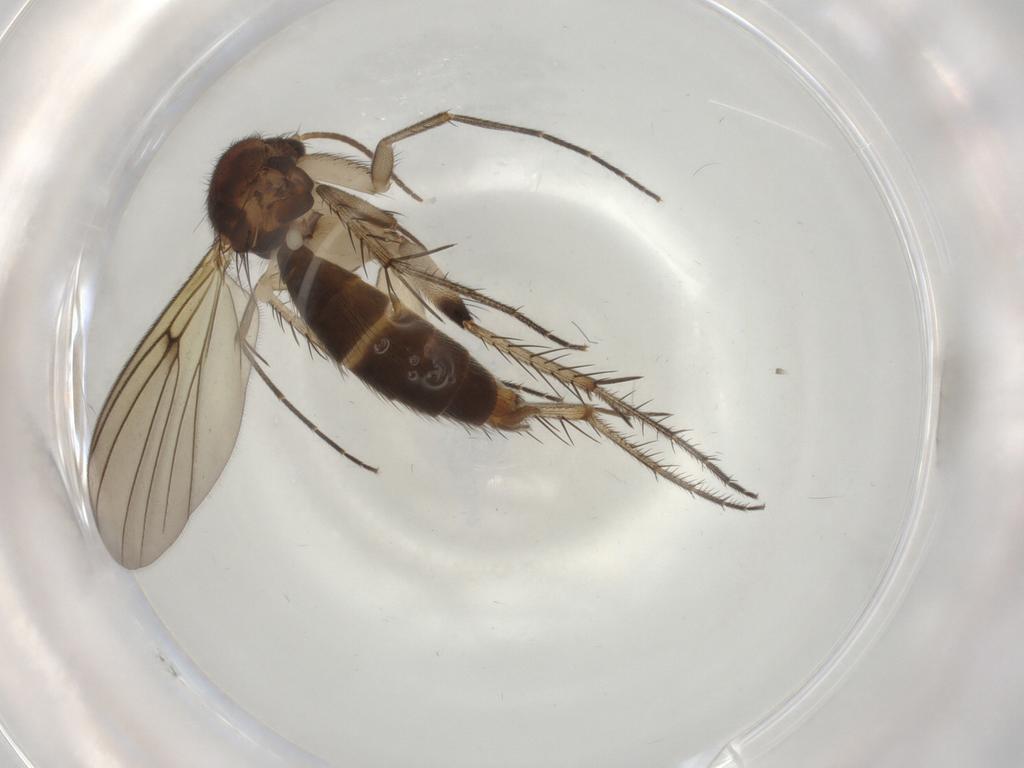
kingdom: Animalia
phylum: Arthropoda
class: Insecta
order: Diptera
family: Mycetophilidae
